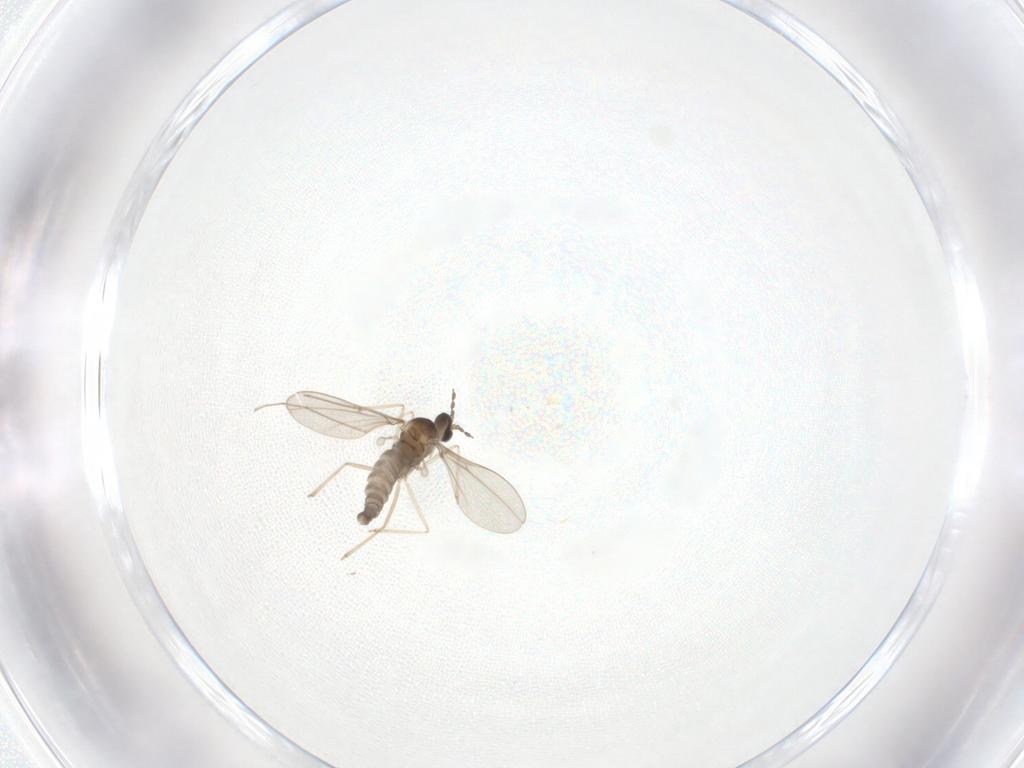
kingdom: Animalia
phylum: Arthropoda
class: Insecta
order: Diptera
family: Cecidomyiidae
